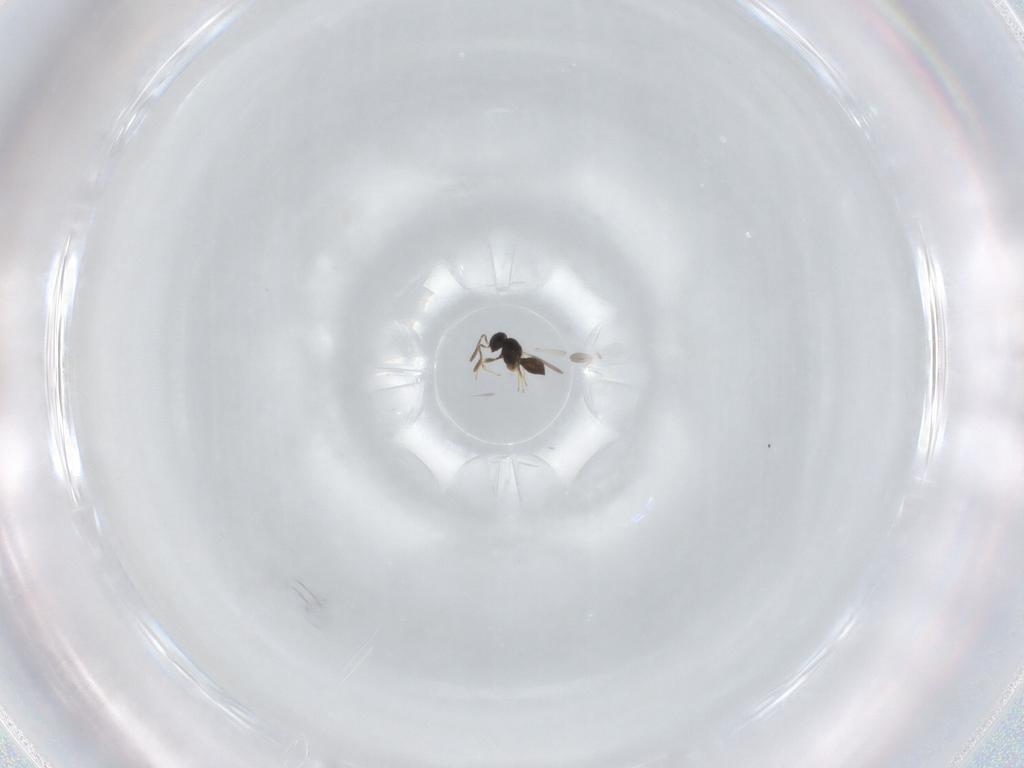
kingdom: Animalia
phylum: Arthropoda
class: Insecta
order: Hymenoptera
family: Scelionidae
